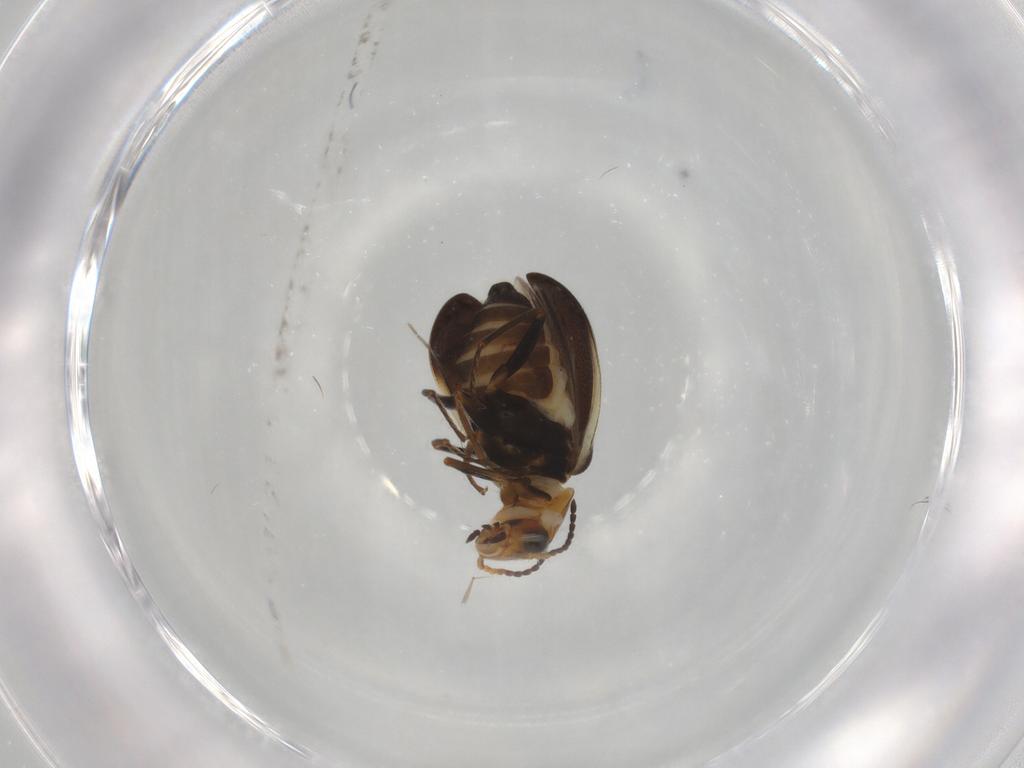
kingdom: Animalia
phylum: Arthropoda
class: Insecta
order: Coleoptera
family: Melyridae
